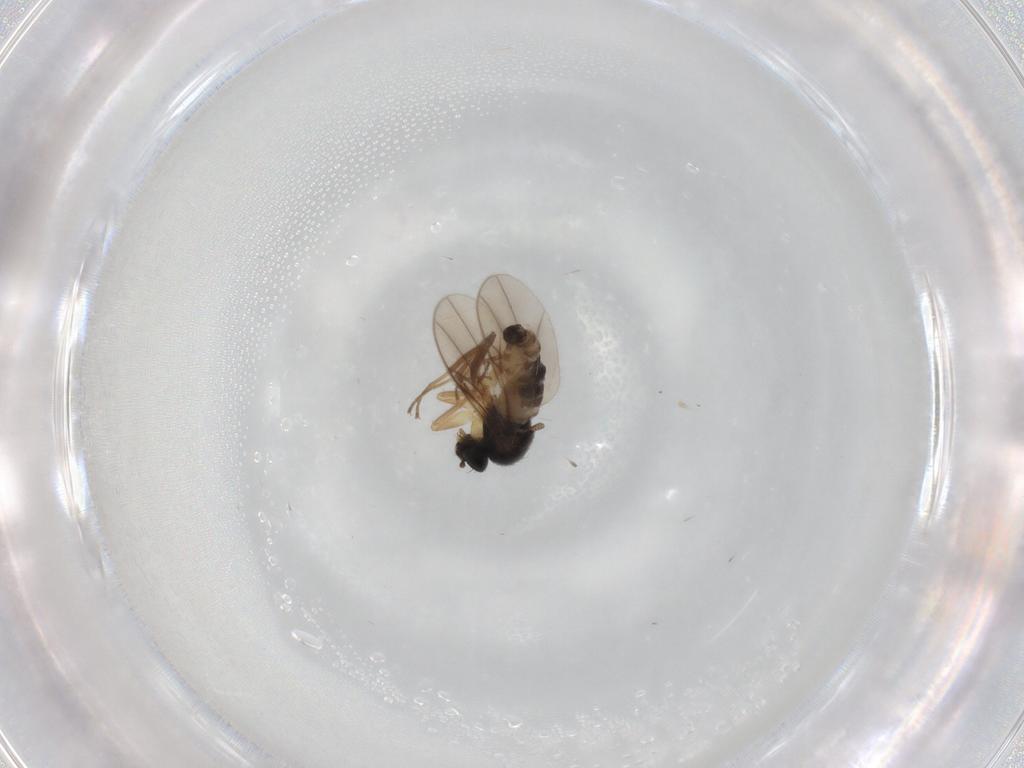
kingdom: Animalia
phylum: Arthropoda
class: Insecta
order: Diptera
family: Hybotidae
